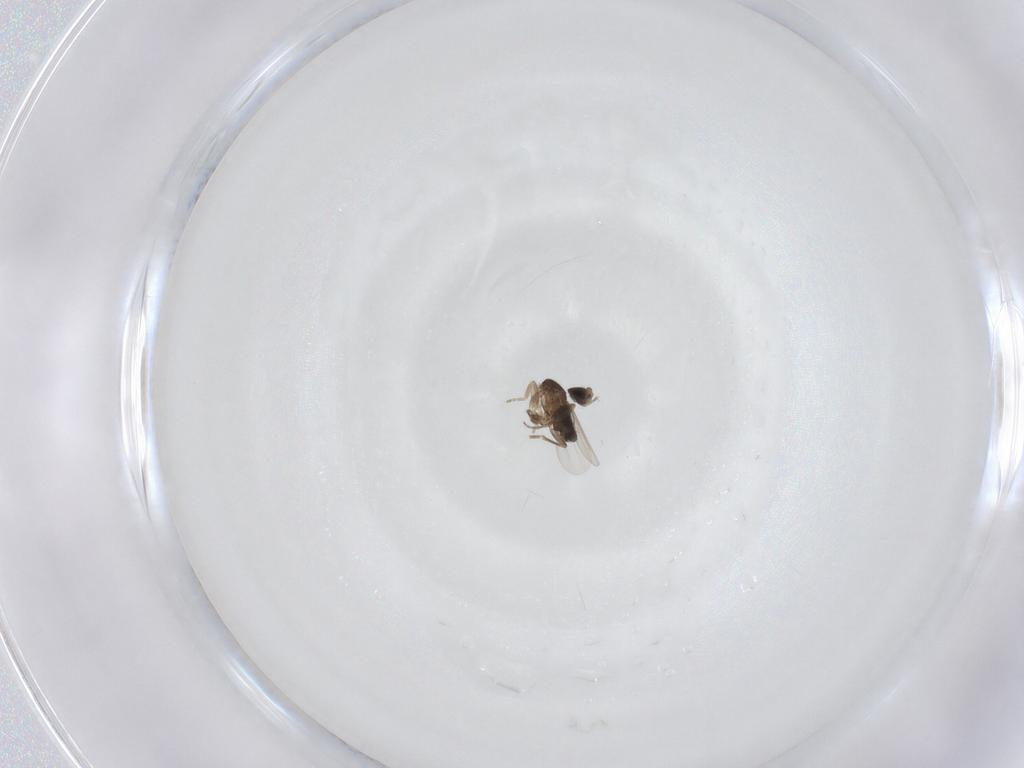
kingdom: Animalia
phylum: Arthropoda
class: Insecta
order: Diptera
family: Phoridae
